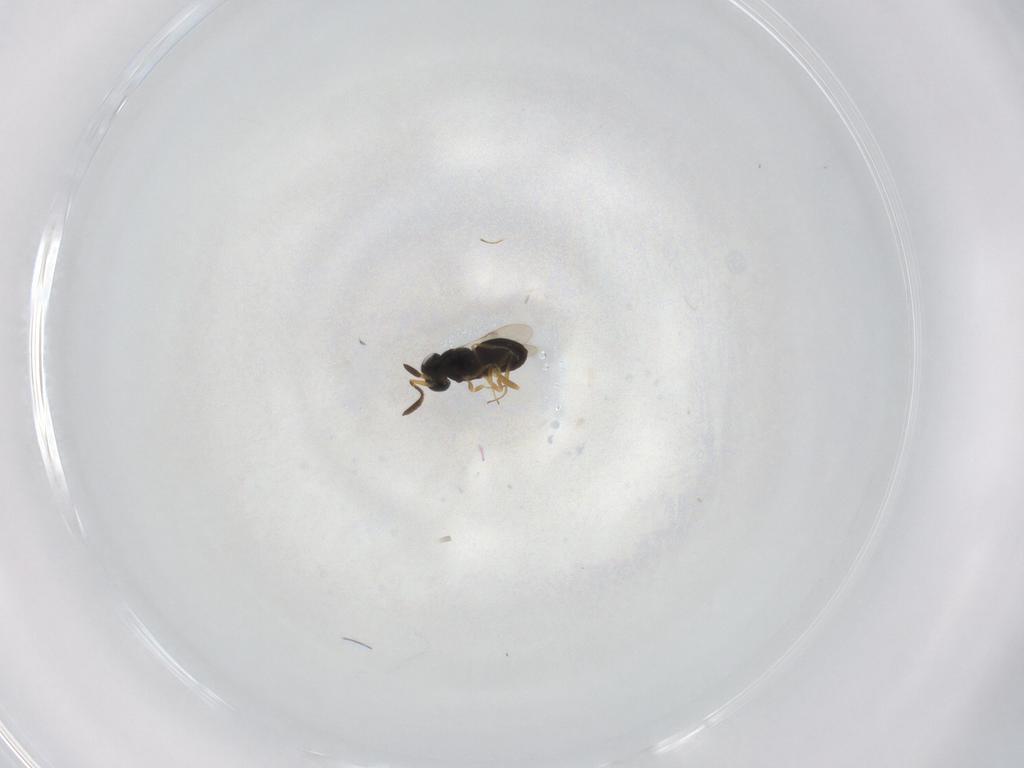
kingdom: Animalia
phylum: Arthropoda
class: Insecta
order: Hymenoptera
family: Scelionidae
